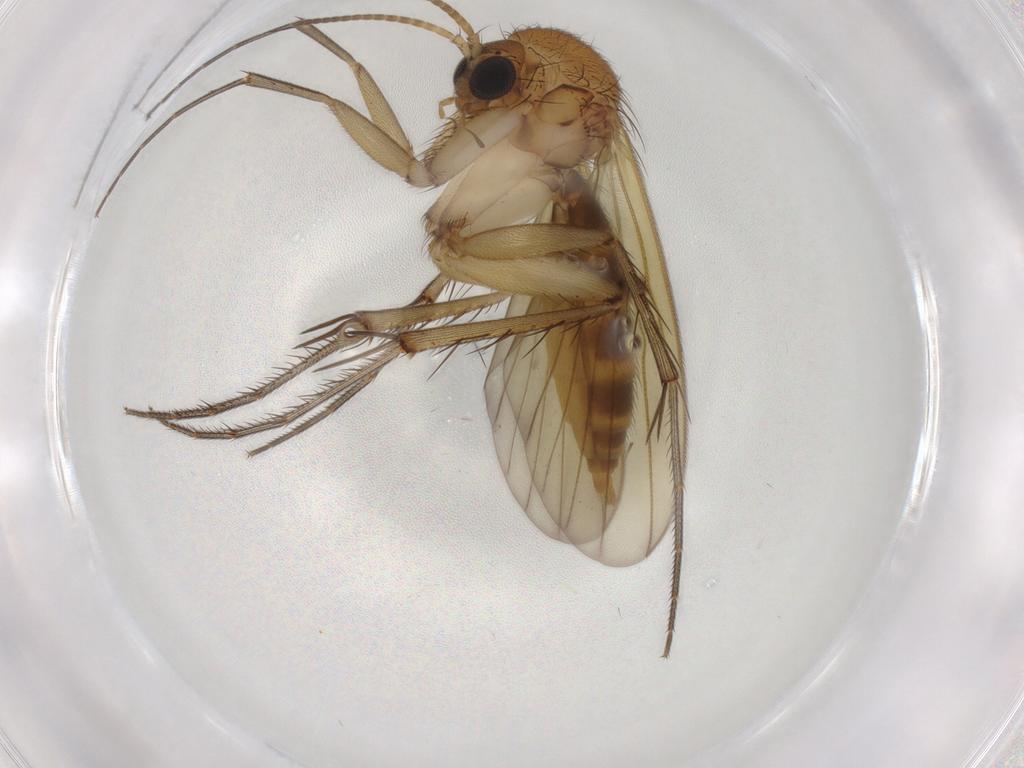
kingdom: Animalia
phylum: Arthropoda
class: Insecta
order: Diptera
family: Mycetophilidae
